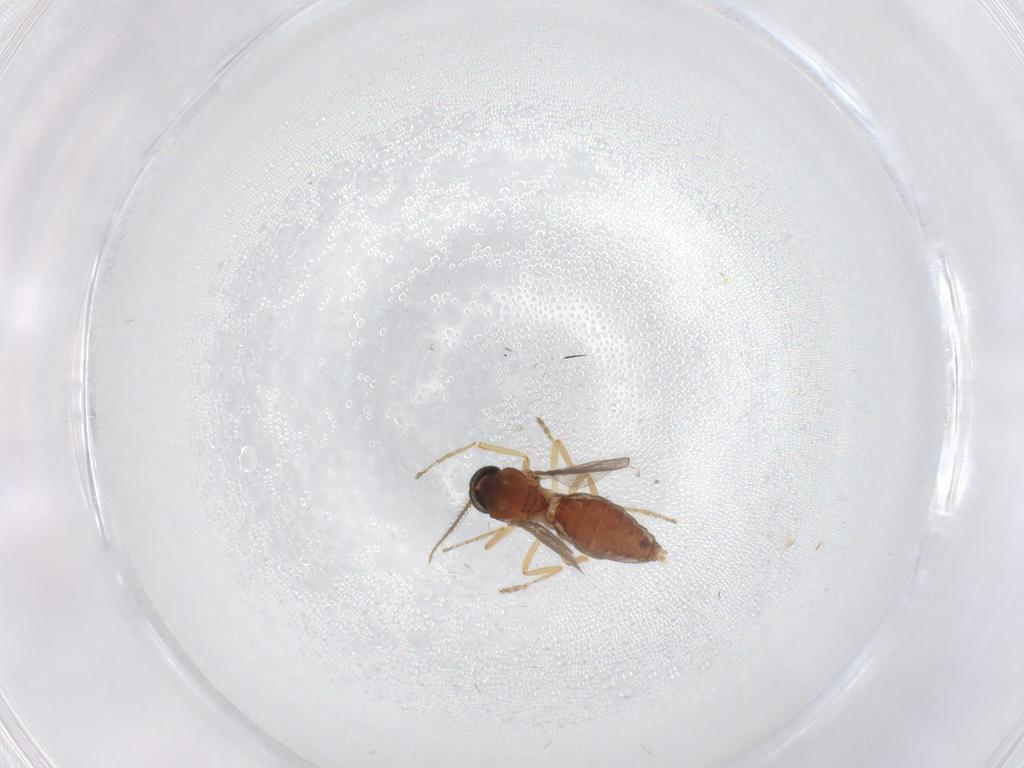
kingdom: Animalia
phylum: Arthropoda
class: Insecta
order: Diptera
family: Ceratopogonidae
